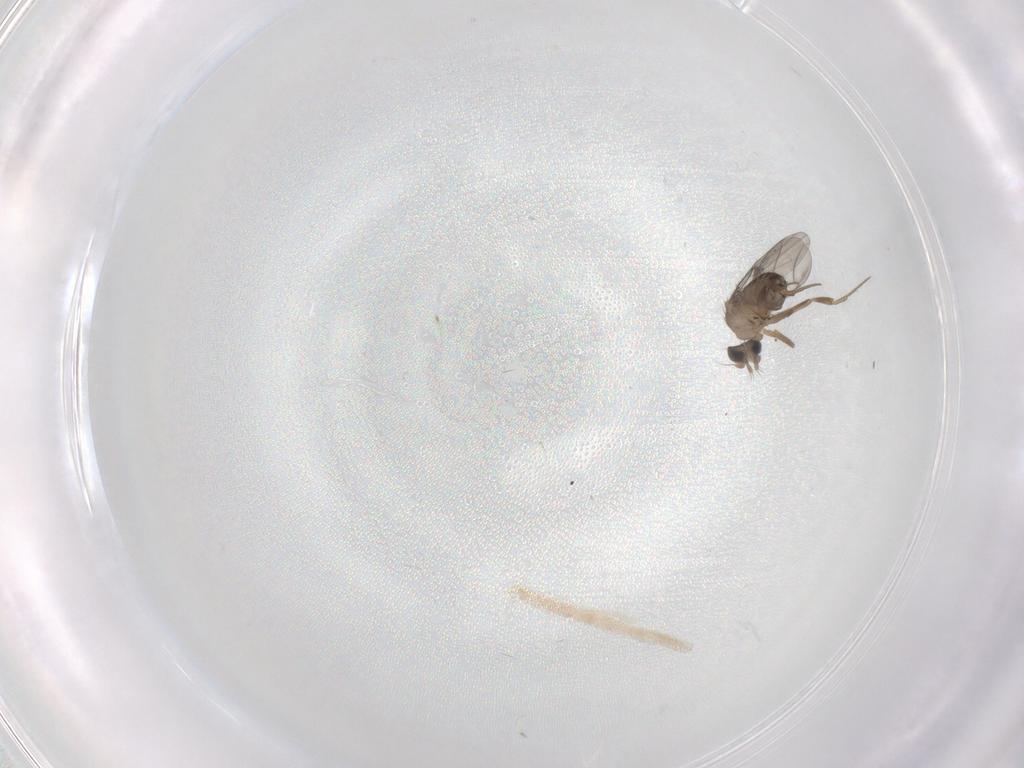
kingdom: Animalia
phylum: Arthropoda
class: Insecta
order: Diptera
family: Phoridae
